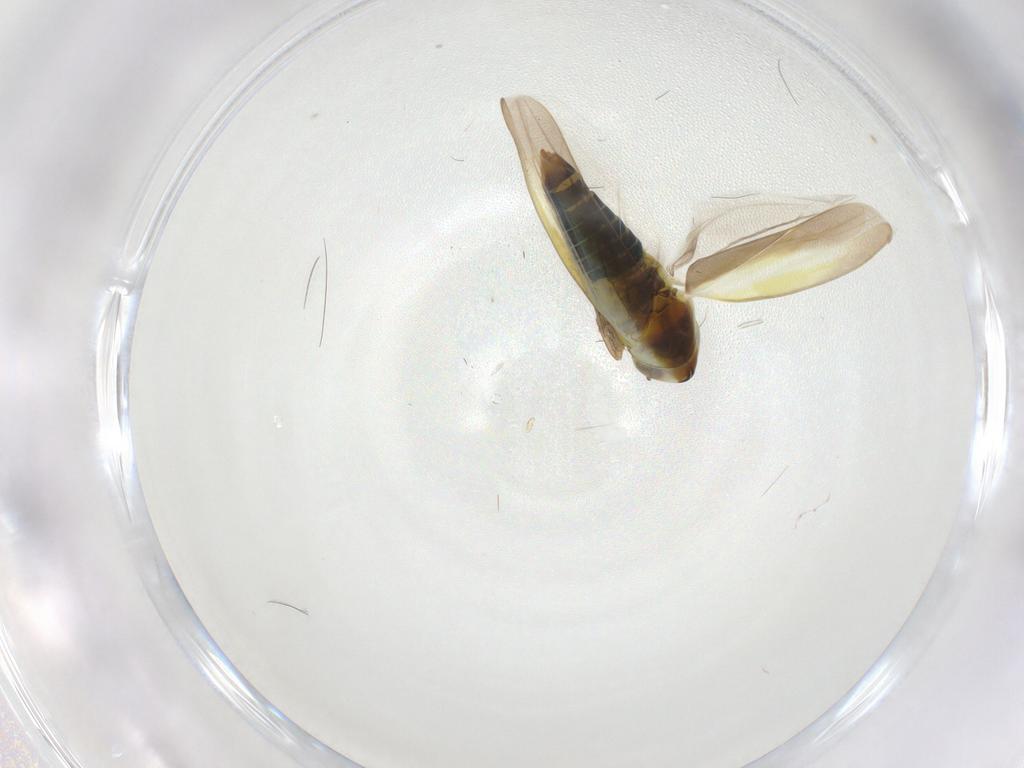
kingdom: Animalia
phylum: Arthropoda
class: Insecta
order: Hemiptera
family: Cicadellidae
